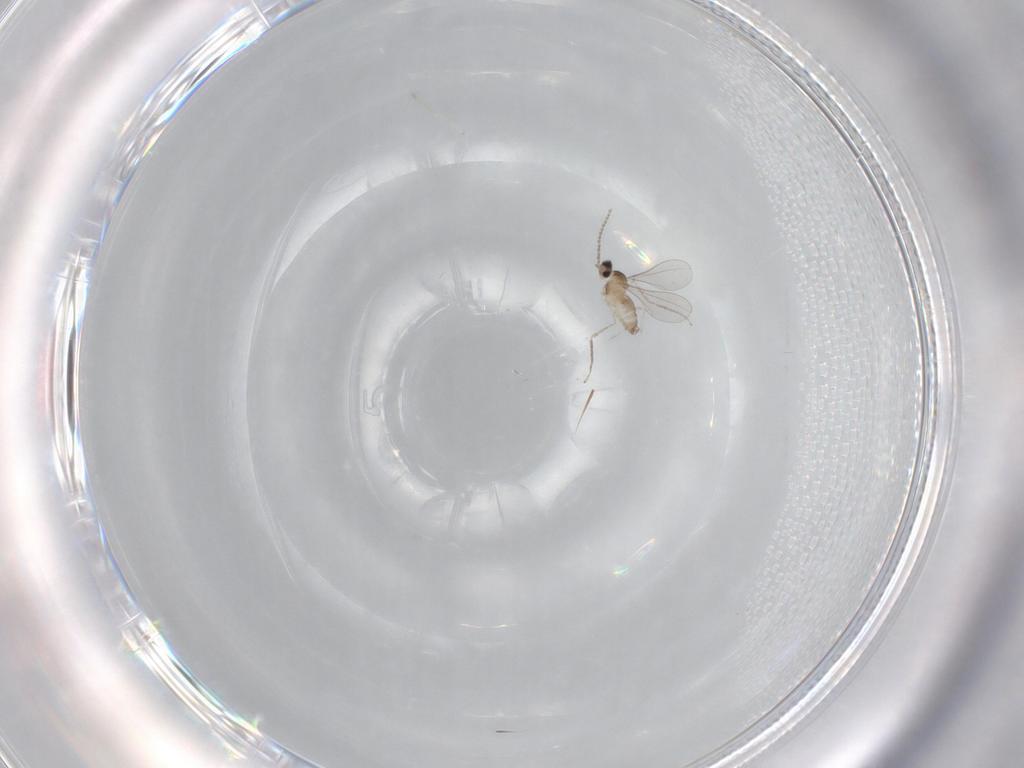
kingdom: Animalia
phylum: Arthropoda
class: Insecta
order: Diptera
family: Cecidomyiidae
